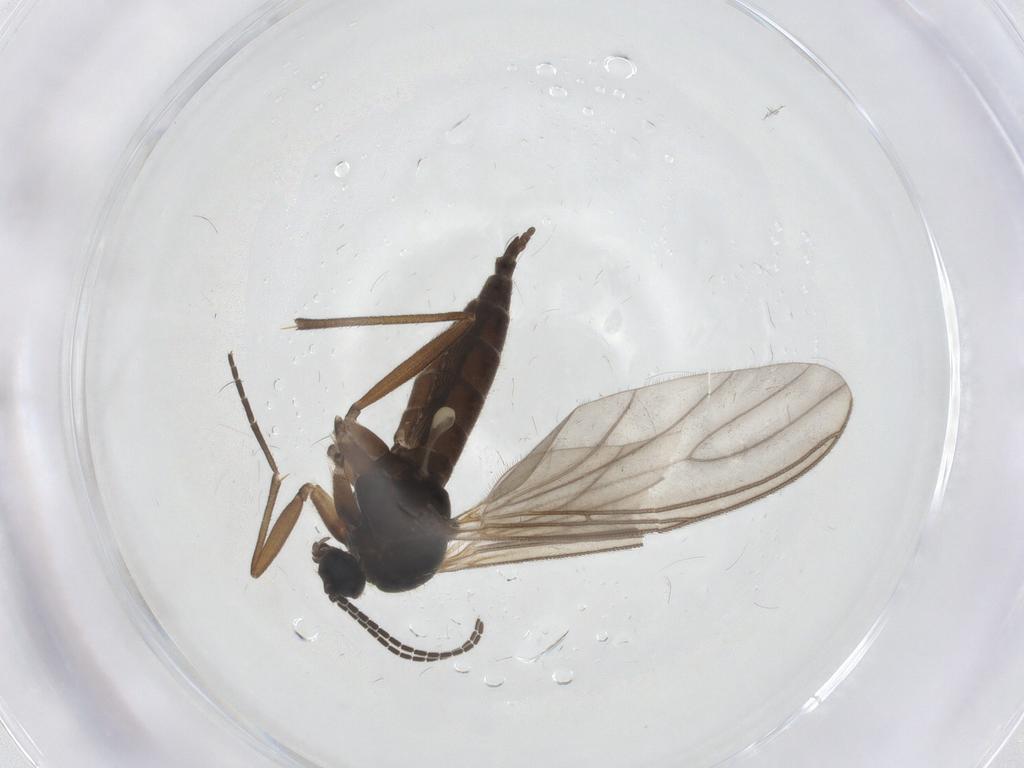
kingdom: Animalia
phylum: Arthropoda
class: Insecta
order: Diptera
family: Sciaridae
